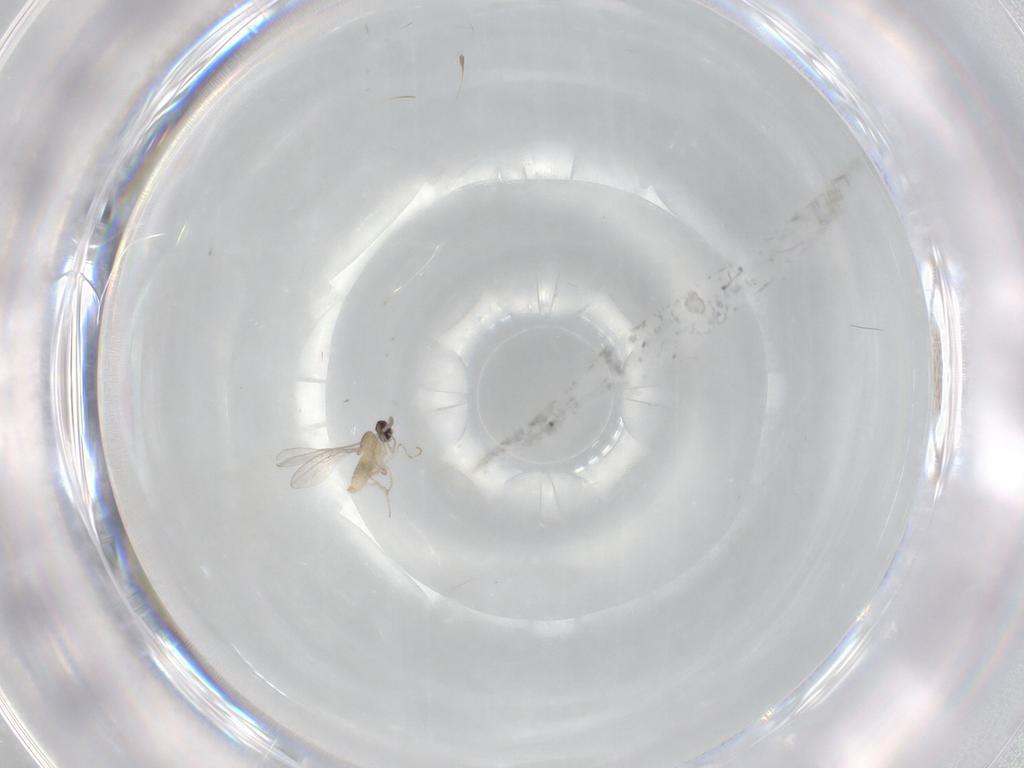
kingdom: Animalia
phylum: Arthropoda
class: Insecta
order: Diptera
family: Cecidomyiidae
